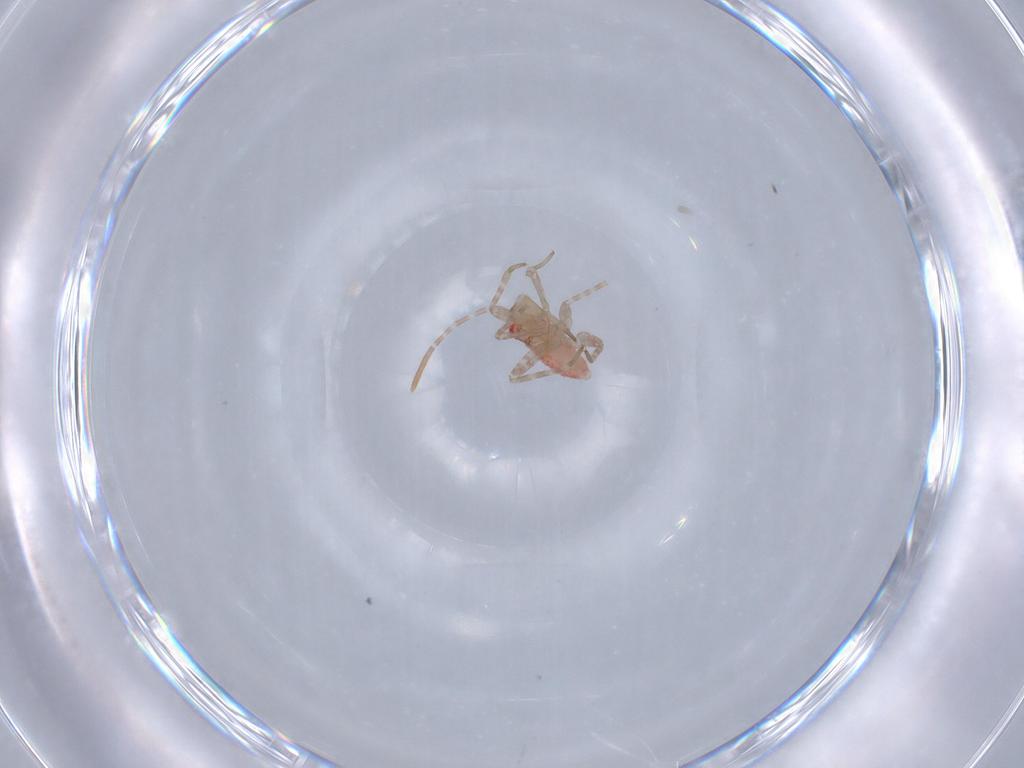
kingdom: Animalia
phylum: Arthropoda
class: Insecta
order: Hemiptera
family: Miridae
